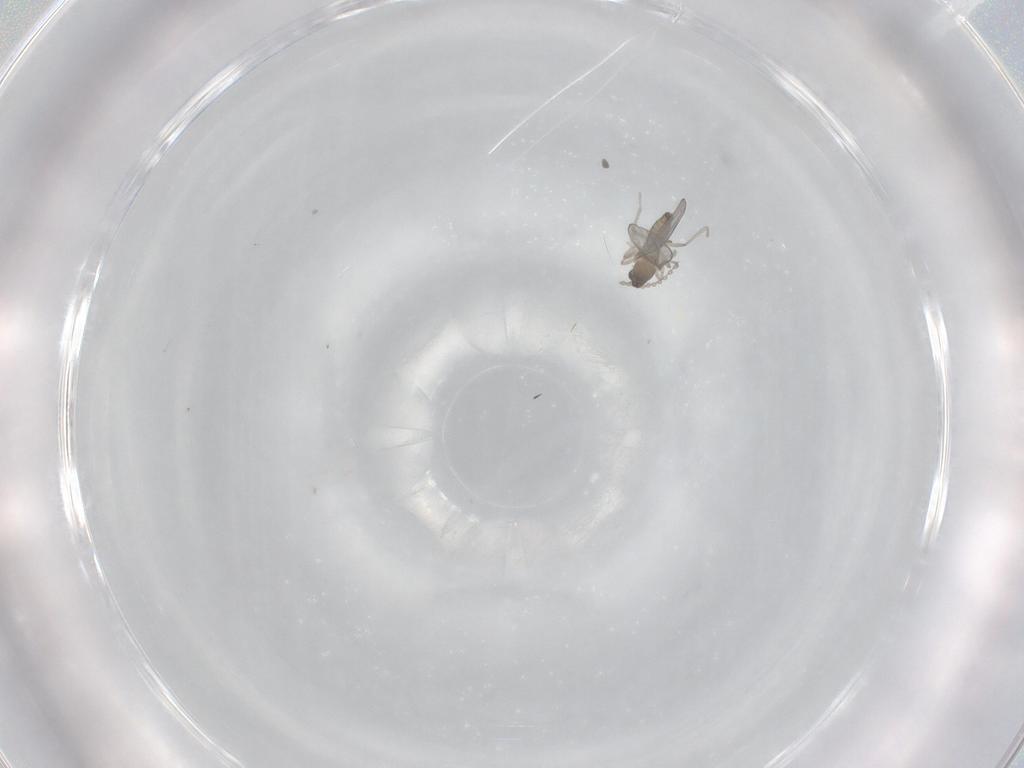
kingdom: Animalia
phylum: Arthropoda
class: Insecta
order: Diptera
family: Cecidomyiidae
